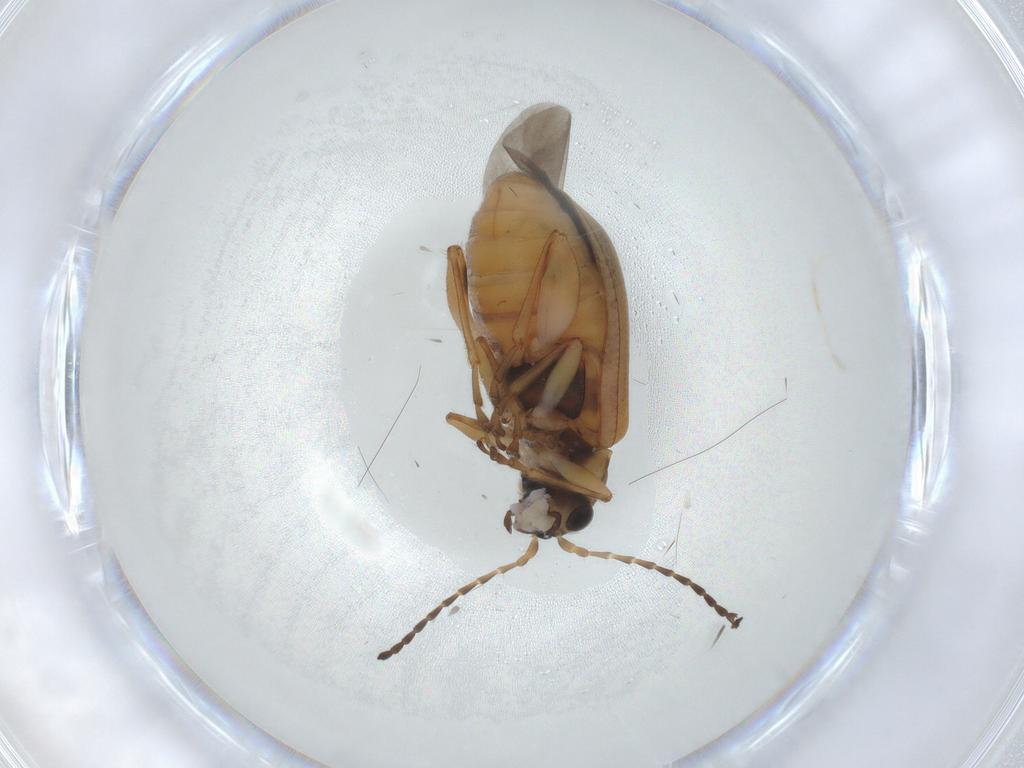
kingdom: Animalia
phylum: Arthropoda
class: Insecta
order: Coleoptera
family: Chrysomelidae
